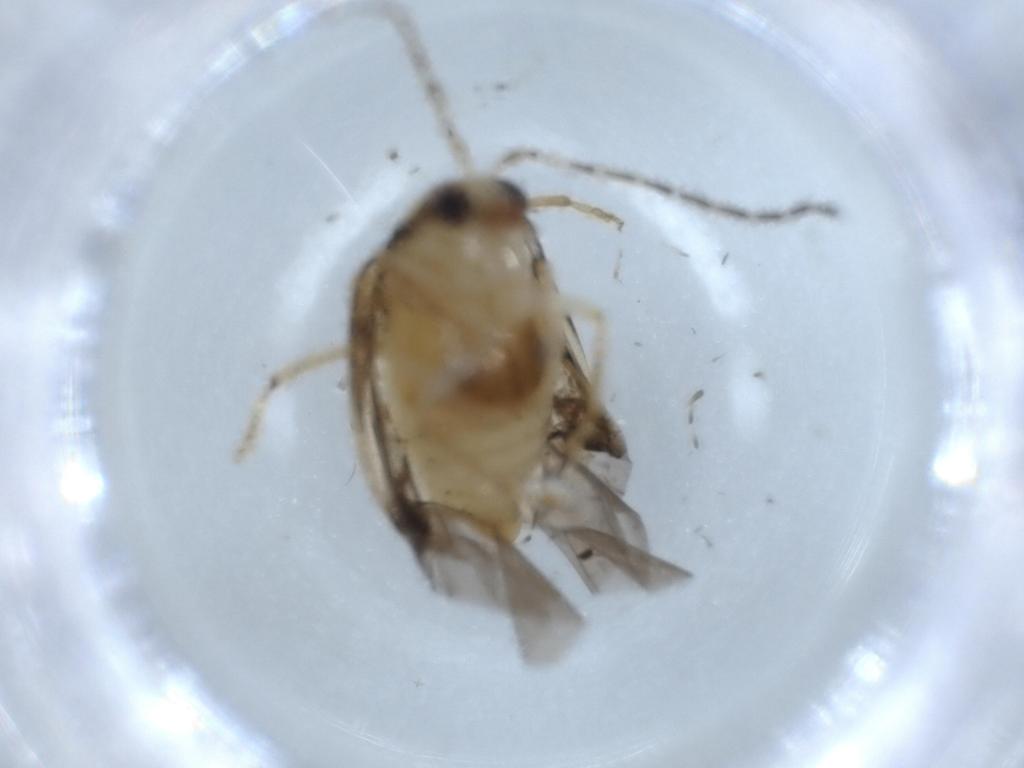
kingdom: Animalia
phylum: Arthropoda
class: Insecta
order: Coleoptera
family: Chrysomelidae
